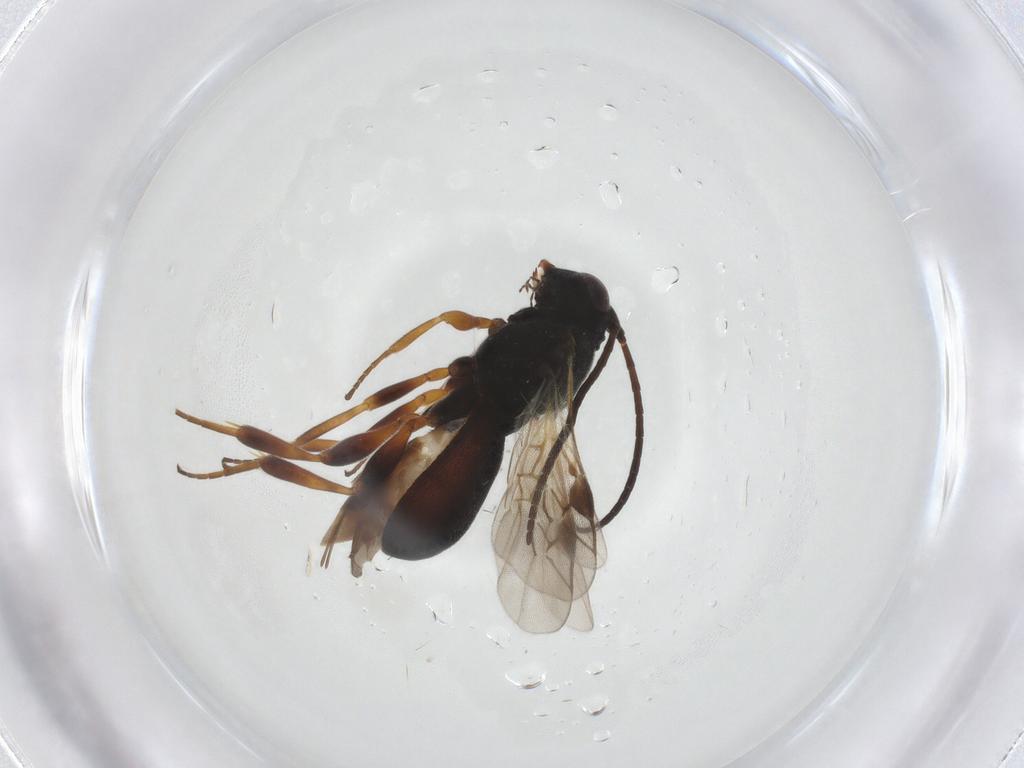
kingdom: Animalia
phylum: Arthropoda
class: Insecta
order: Hymenoptera
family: Braconidae
